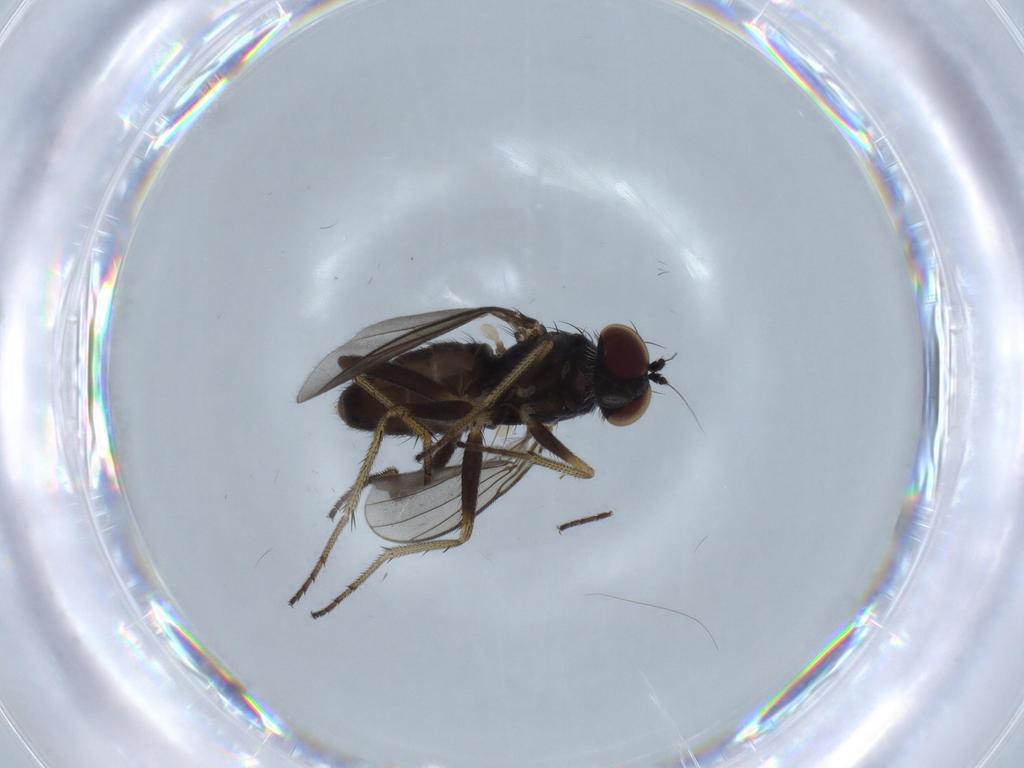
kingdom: Animalia
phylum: Arthropoda
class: Insecta
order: Diptera
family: Dolichopodidae
